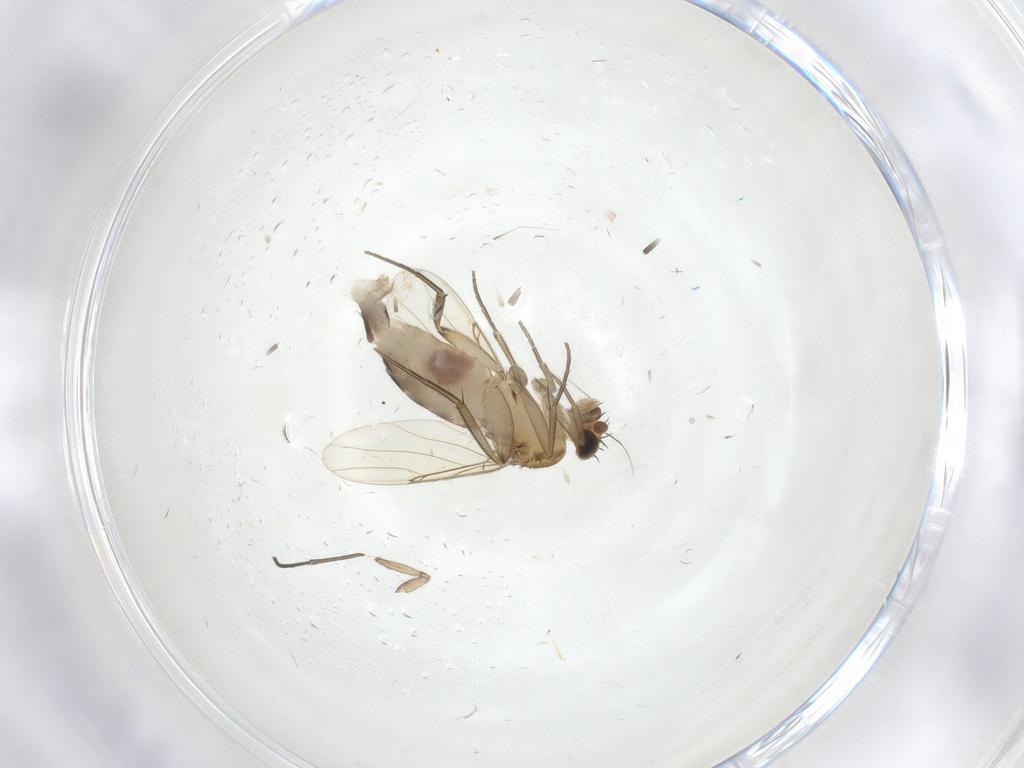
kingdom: Animalia
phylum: Arthropoda
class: Insecta
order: Diptera
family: Phoridae
